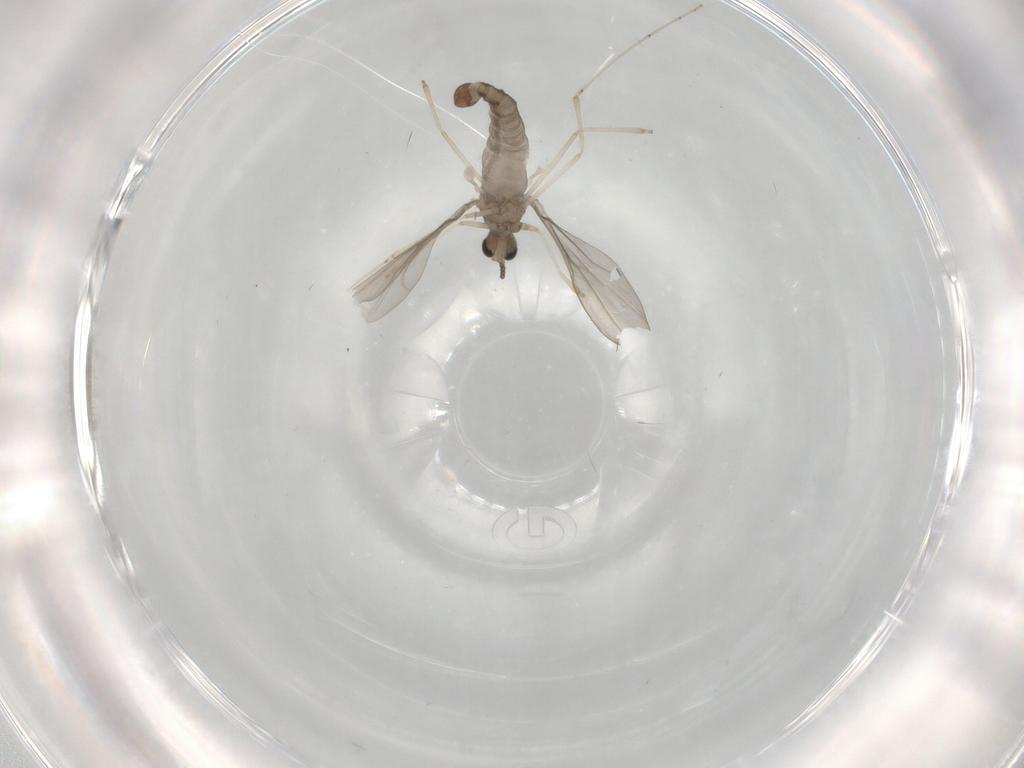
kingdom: Animalia
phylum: Arthropoda
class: Insecta
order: Diptera
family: Cecidomyiidae
